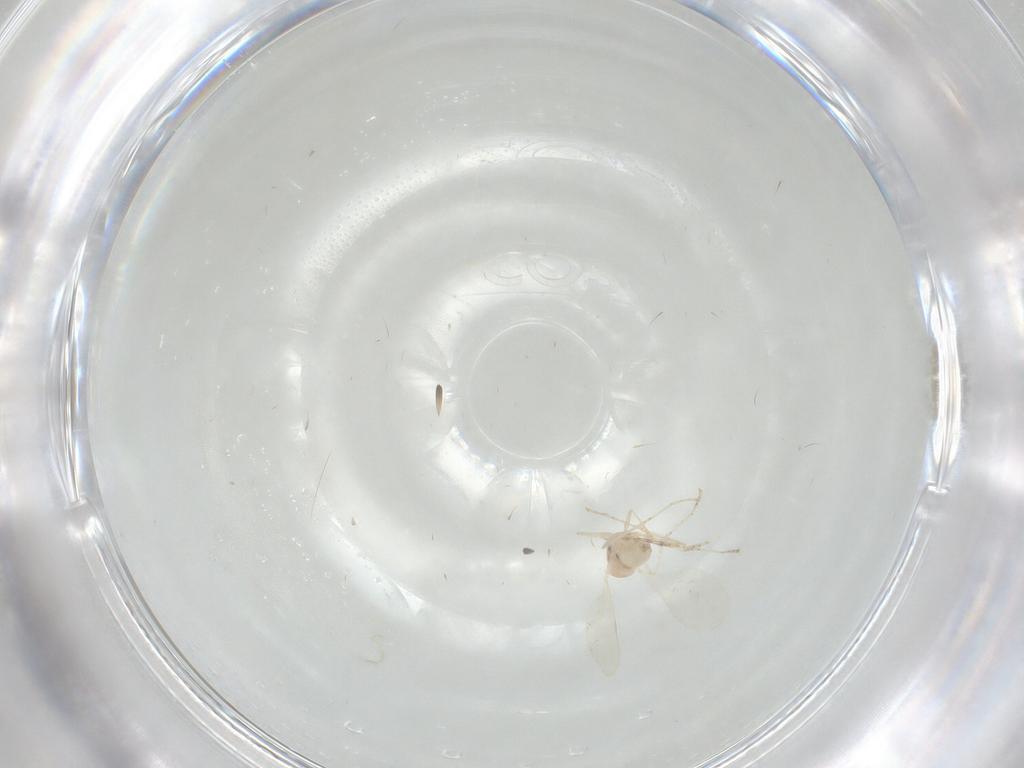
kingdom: Animalia
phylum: Arthropoda
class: Insecta
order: Diptera
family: Cecidomyiidae
